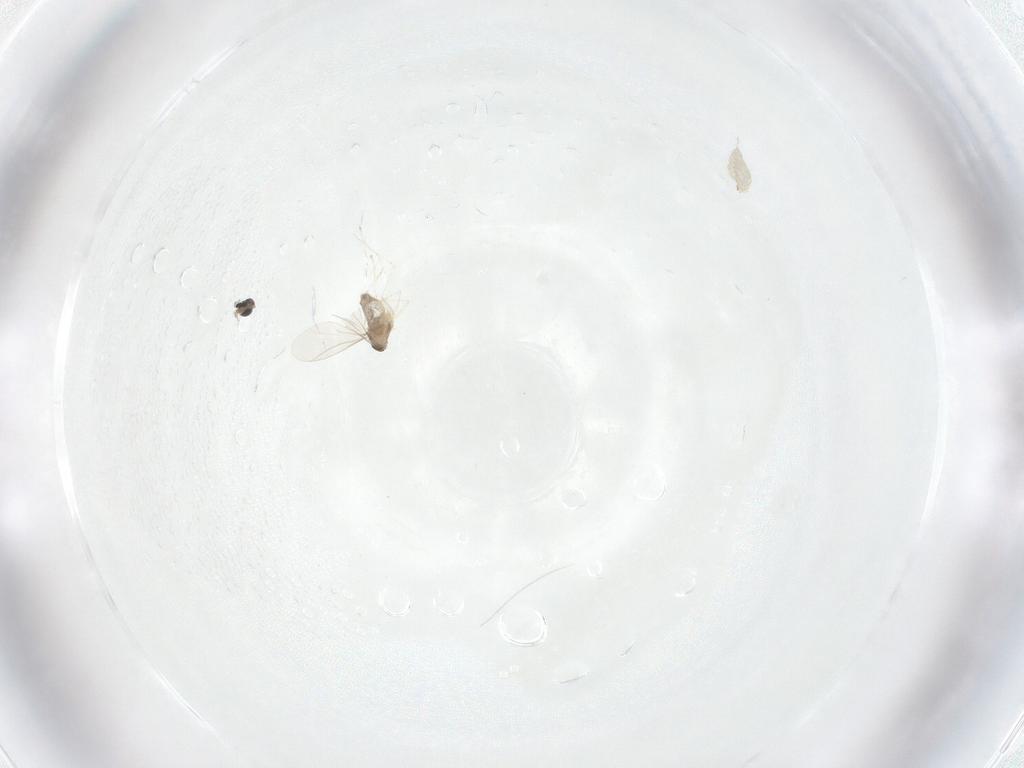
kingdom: Animalia
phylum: Arthropoda
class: Insecta
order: Diptera
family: Cecidomyiidae
